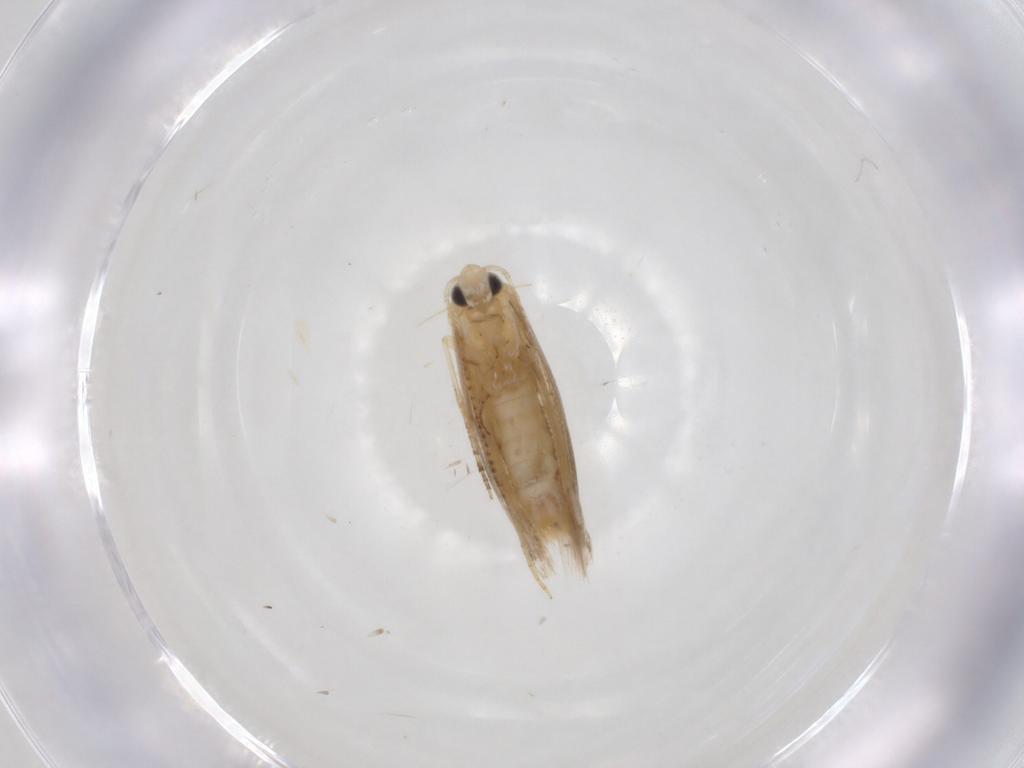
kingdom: Animalia
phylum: Arthropoda
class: Insecta
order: Lepidoptera
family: Bucculatricidae
